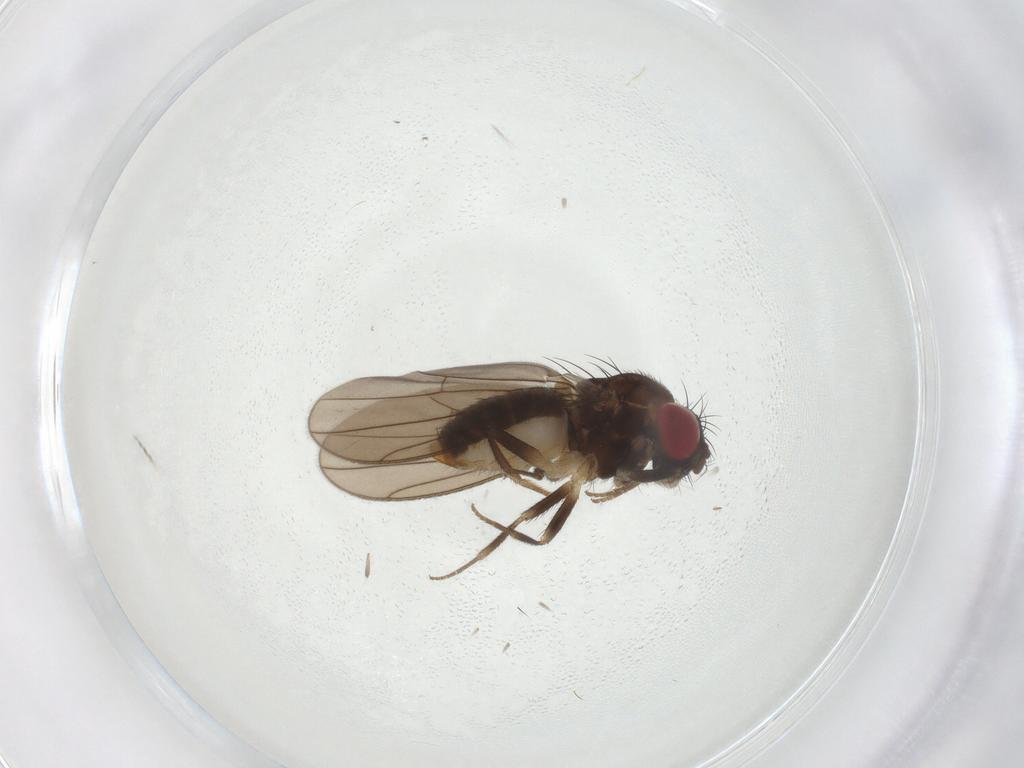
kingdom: Animalia
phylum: Arthropoda
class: Insecta
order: Diptera
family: Drosophilidae
